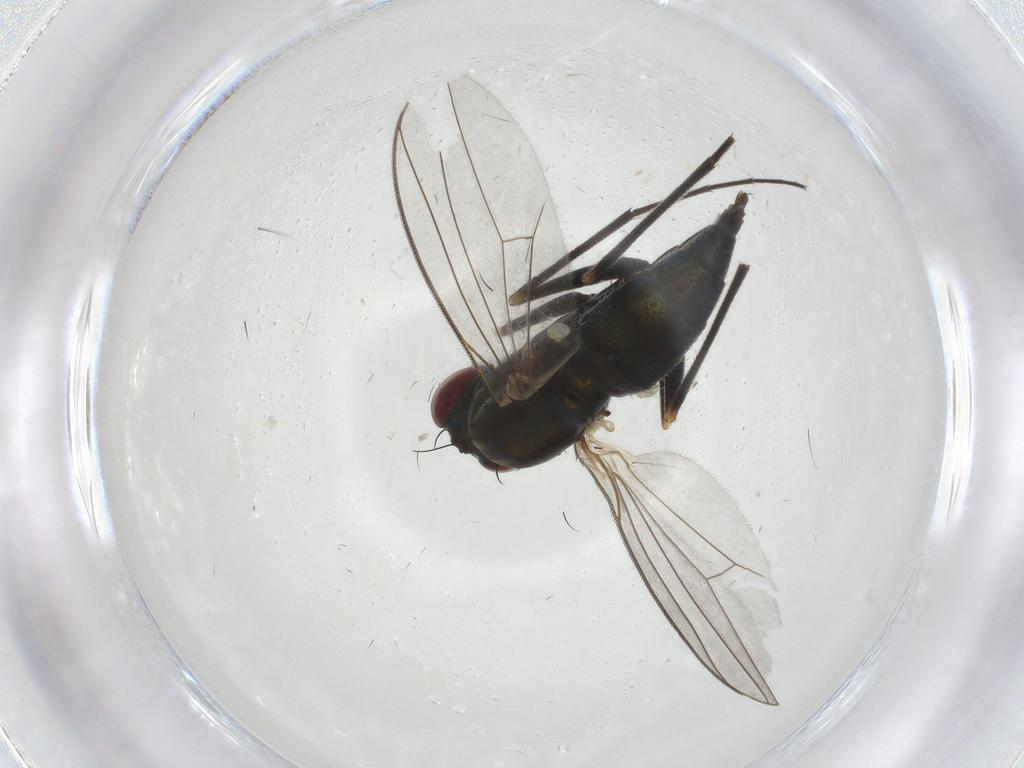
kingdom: Animalia
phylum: Arthropoda
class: Insecta
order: Diptera
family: Dolichopodidae
